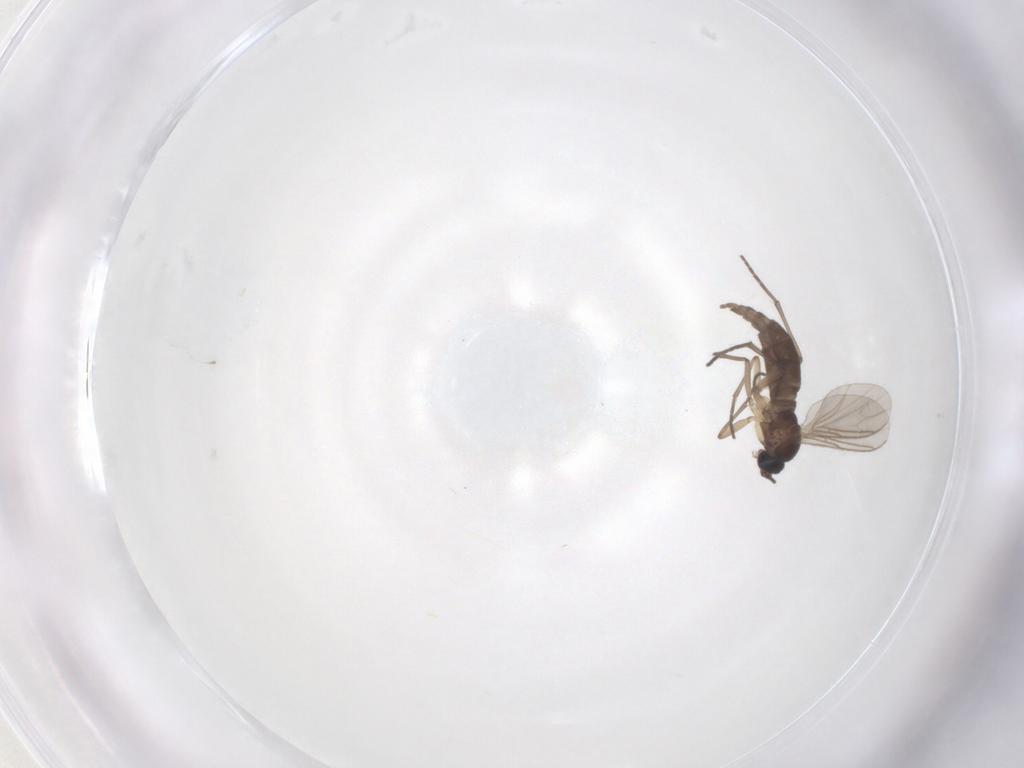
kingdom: Animalia
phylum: Arthropoda
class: Insecta
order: Diptera
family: Sciaridae
